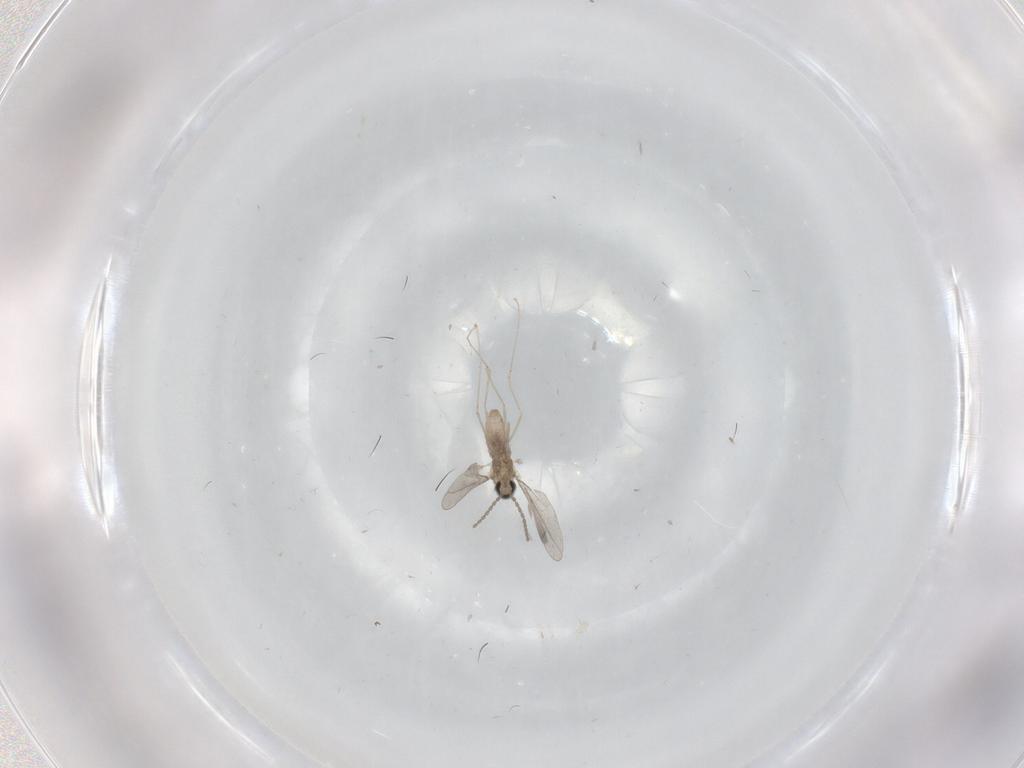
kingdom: Animalia
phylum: Arthropoda
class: Insecta
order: Diptera
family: Cecidomyiidae
